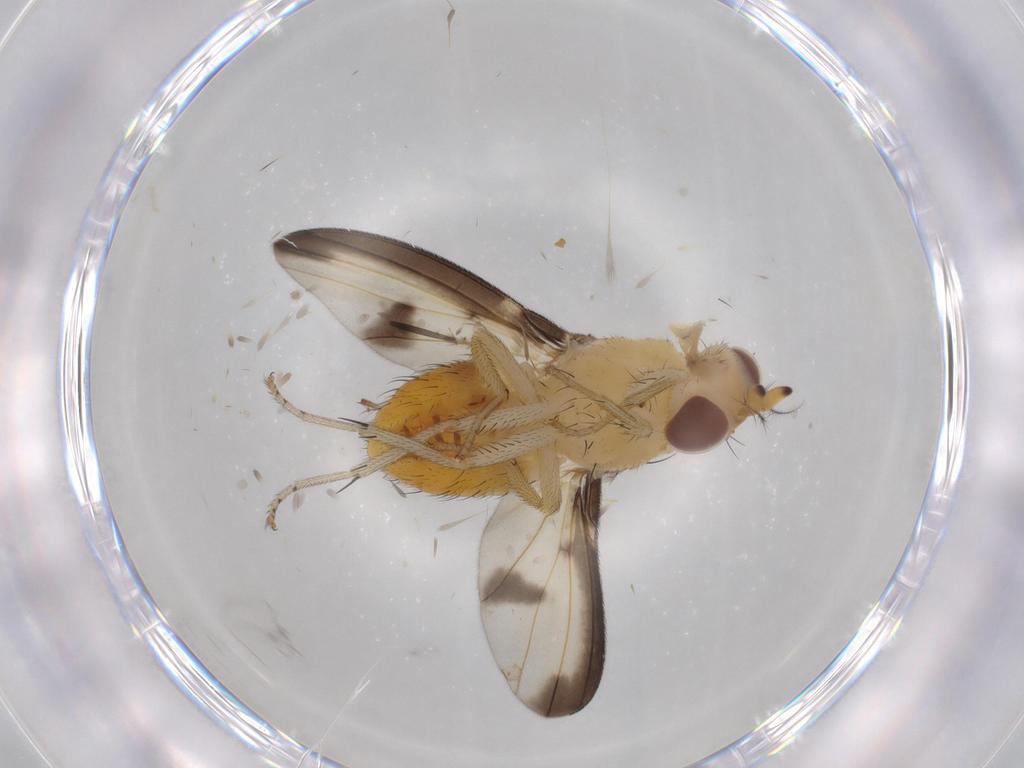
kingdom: Animalia
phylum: Arthropoda
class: Insecta
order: Diptera
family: Lauxaniidae
